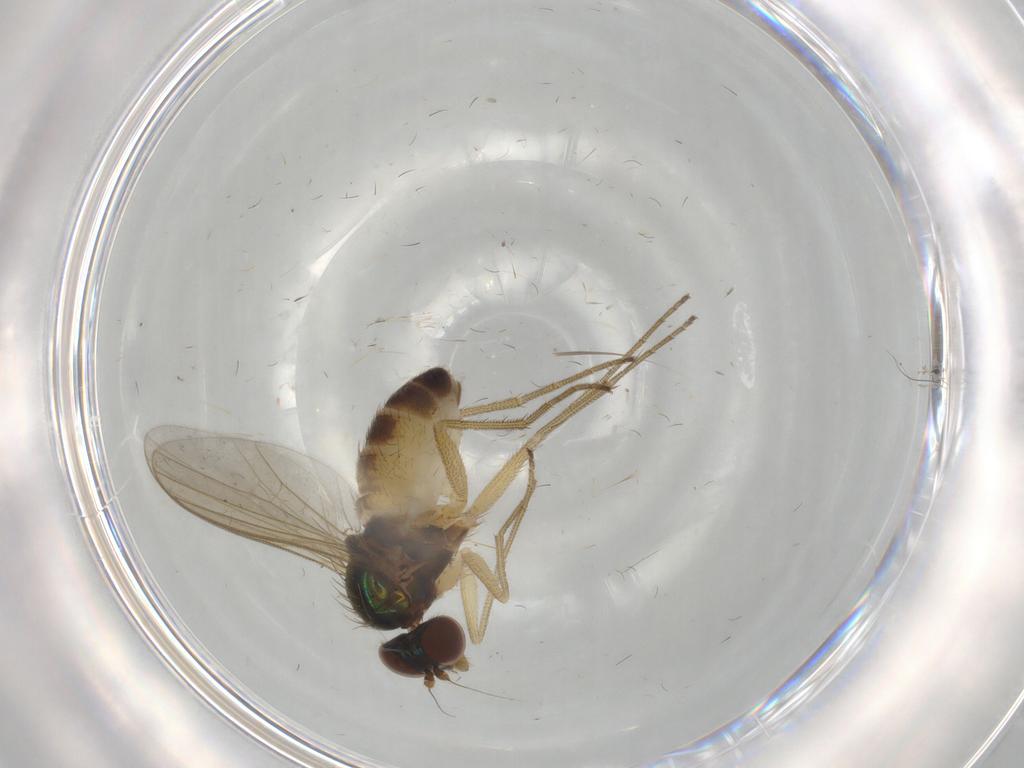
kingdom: Animalia
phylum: Arthropoda
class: Insecta
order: Diptera
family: Dolichopodidae
